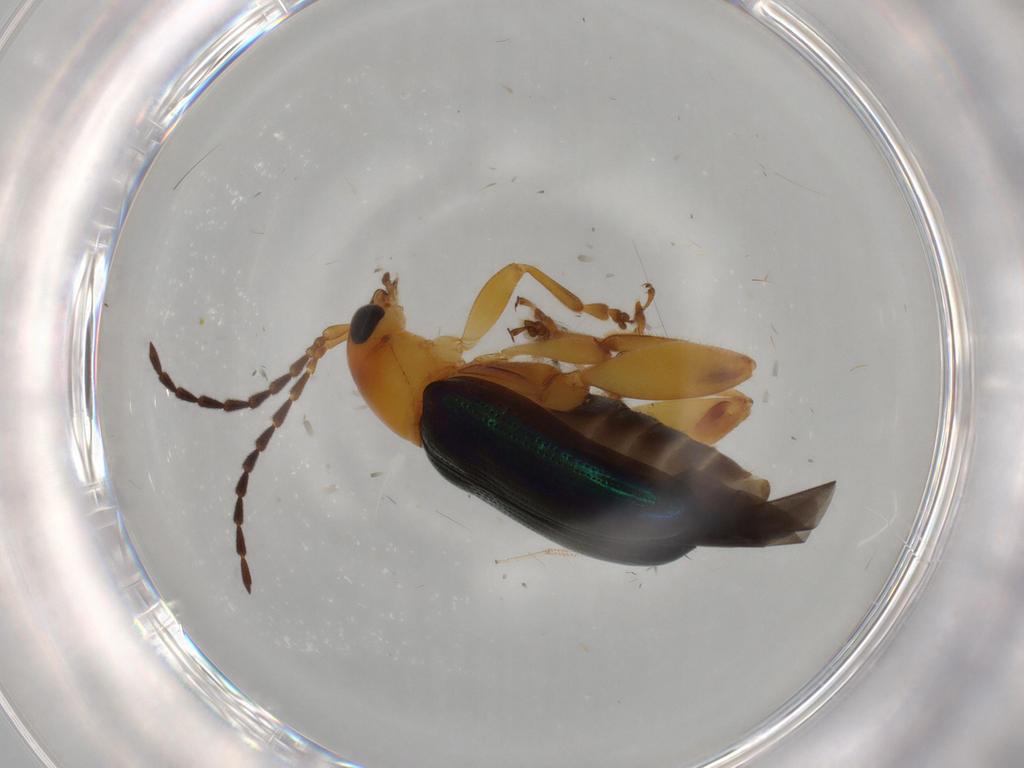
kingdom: Animalia
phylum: Arthropoda
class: Insecta
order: Coleoptera
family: Chrysomelidae
